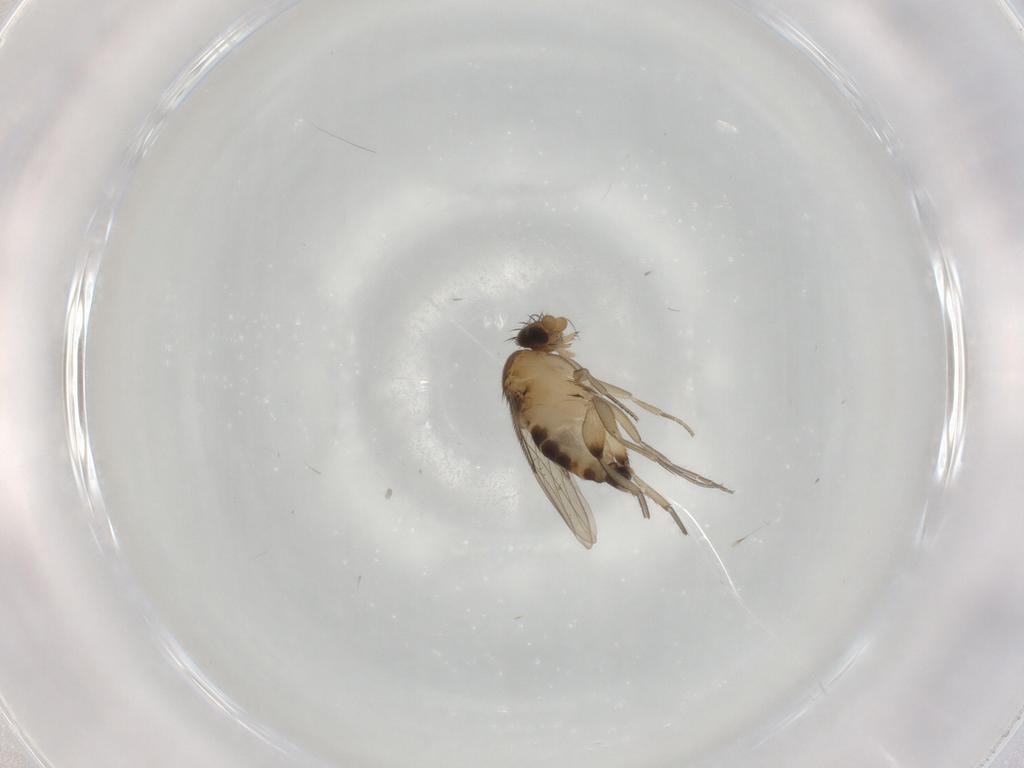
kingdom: Animalia
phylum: Arthropoda
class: Insecta
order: Diptera
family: Phoridae
